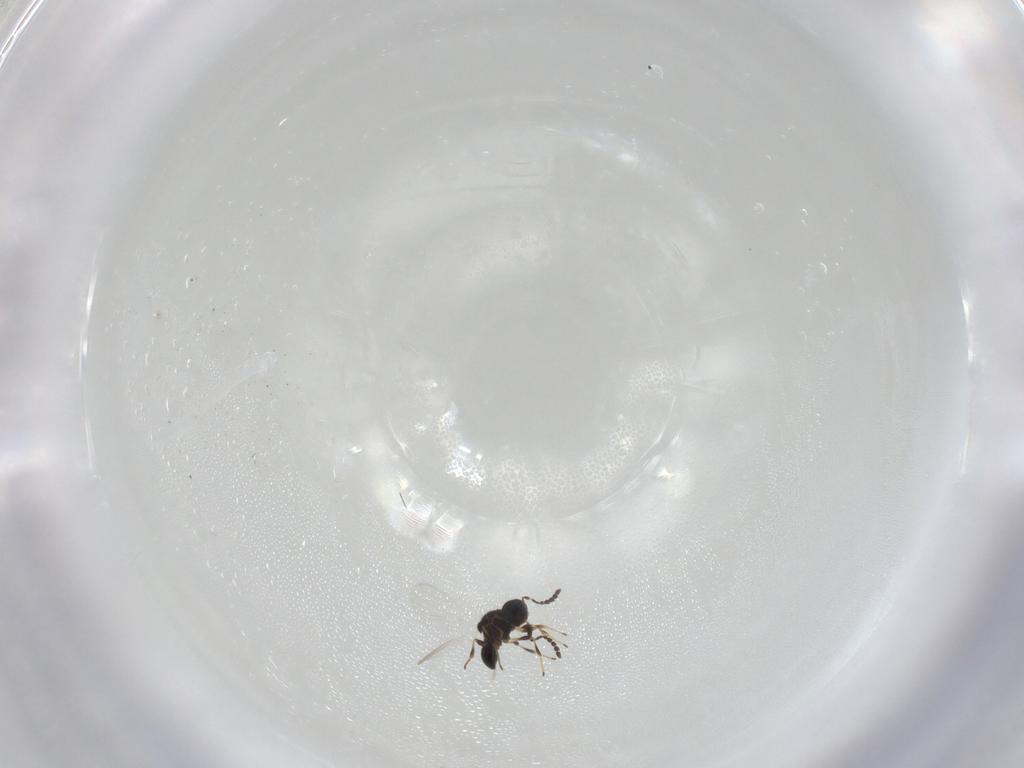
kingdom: Animalia
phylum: Arthropoda
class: Insecta
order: Hymenoptera
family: Platygastridae
